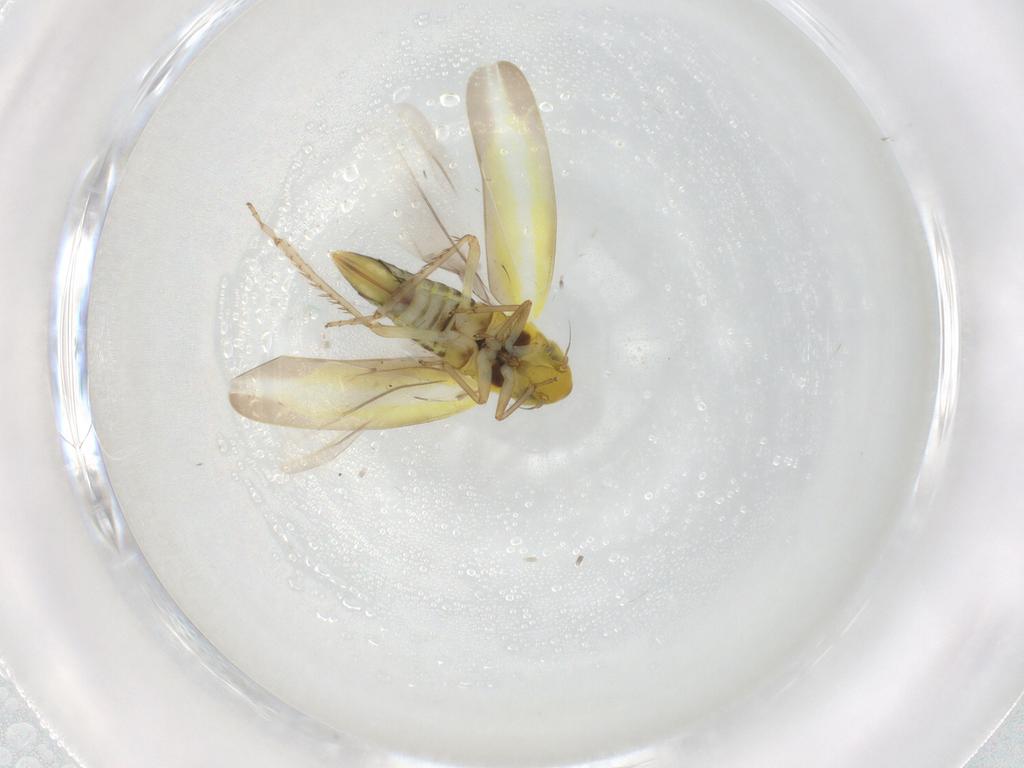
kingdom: Animalia
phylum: Arthropoda
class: Insecta
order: Hemiptera
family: Cicadellidae
